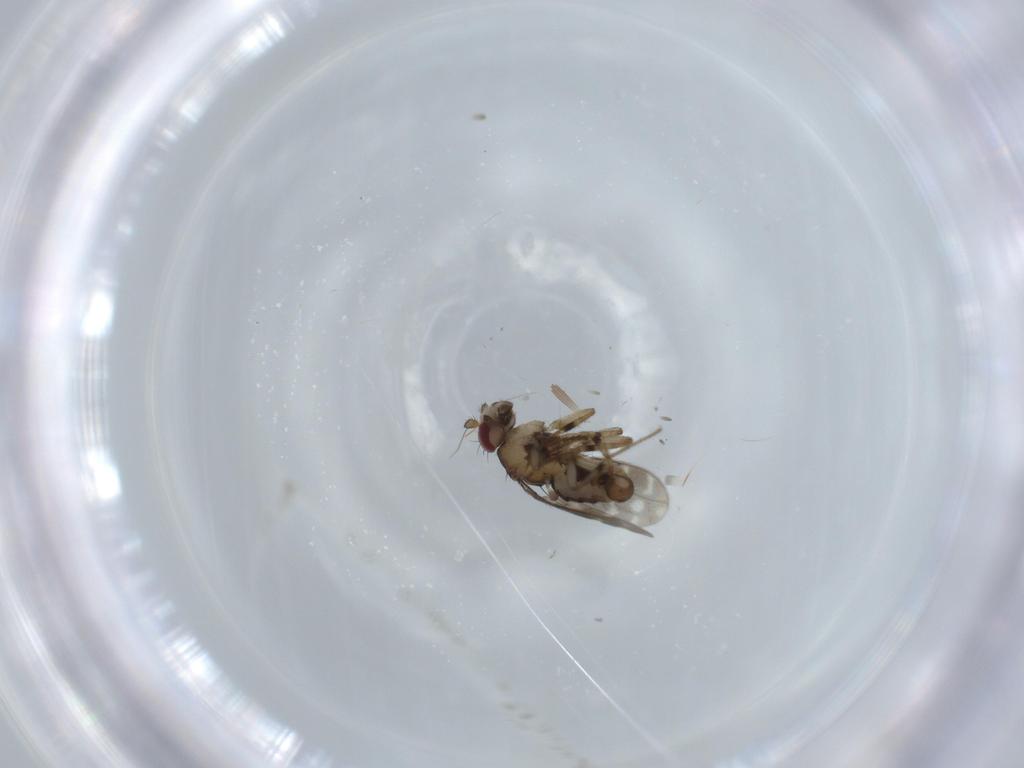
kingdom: Animalia
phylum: Arthropoda
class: Insecta
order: Diptera
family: Sphaeroceridae
